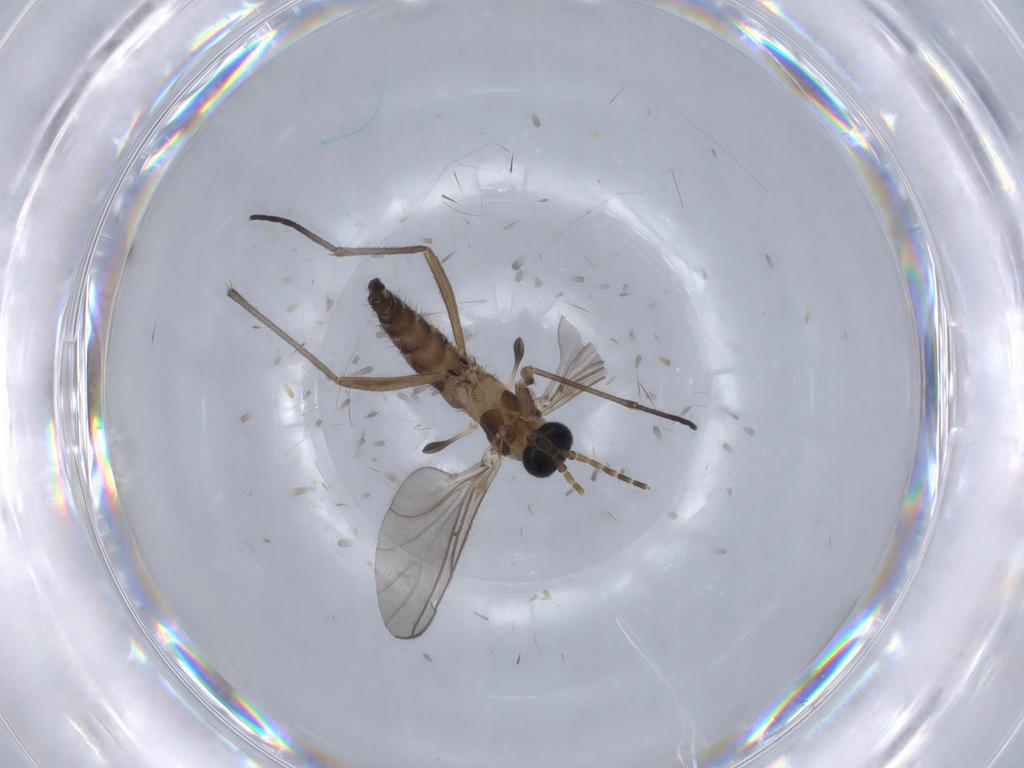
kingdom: Animalia
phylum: Arthropoda
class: Insecta
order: Diptera
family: Sciaridae
